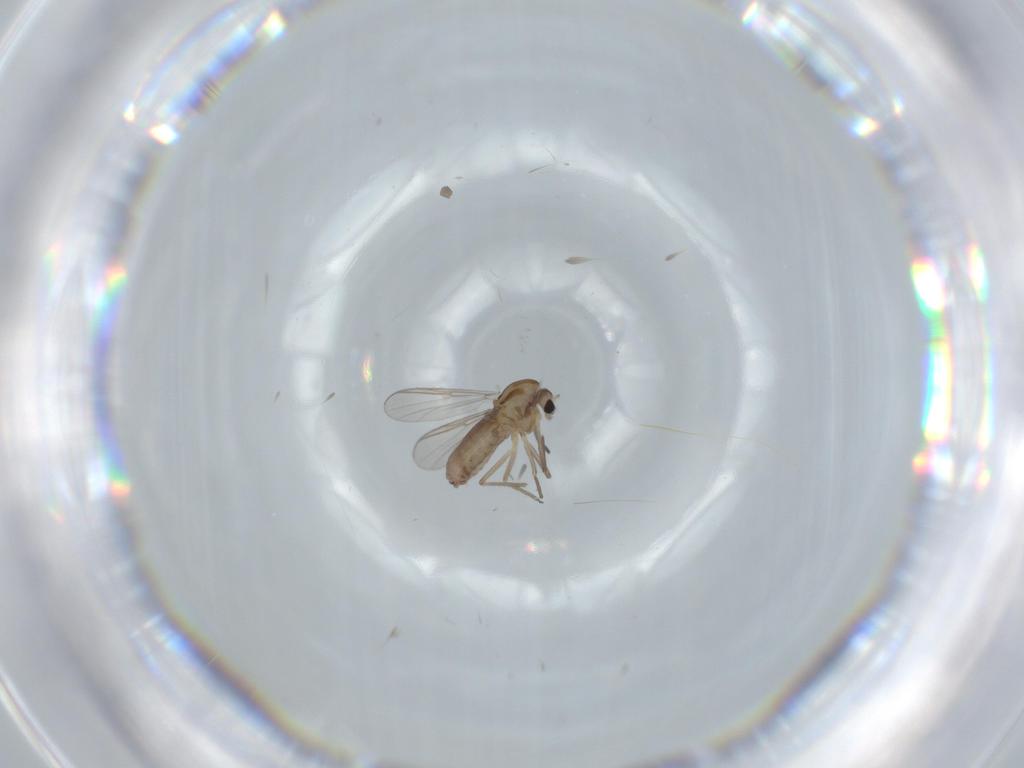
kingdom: Animalia
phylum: Arthropoda
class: Insecta
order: Diptera
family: Chironomidae
